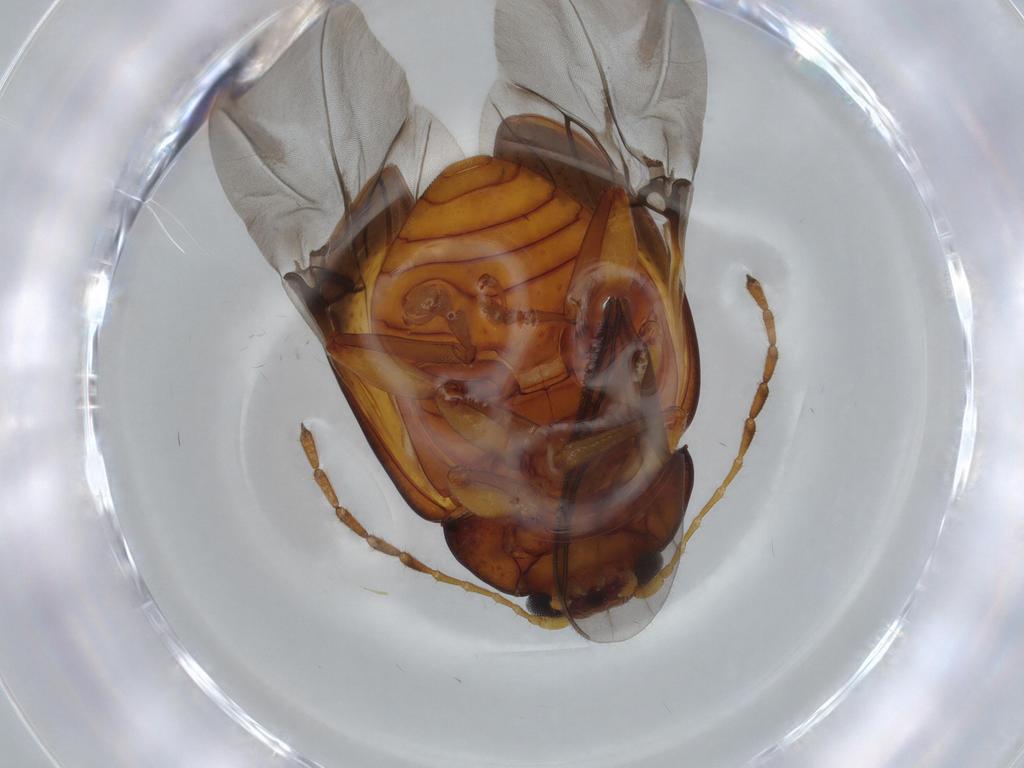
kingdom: Animalia
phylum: Arthropoda
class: Insecta
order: Coleoptera
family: Chrysomelidae
